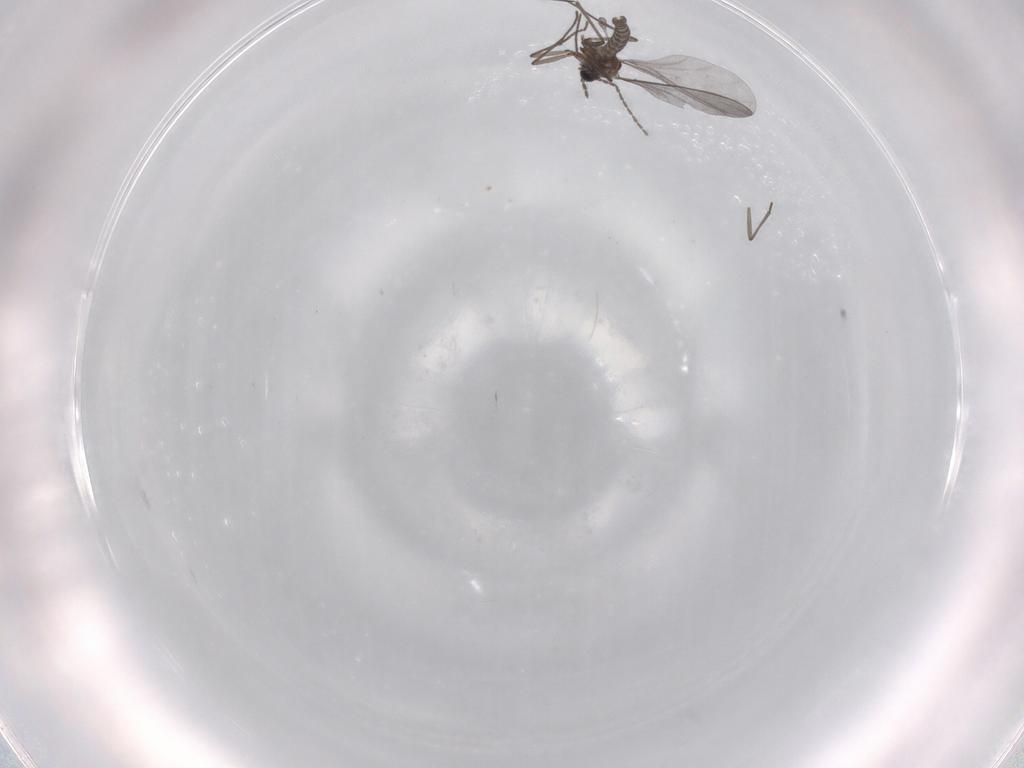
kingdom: Animalia
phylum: Arthropoda
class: Insecta
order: Diptera
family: Sciaridae
